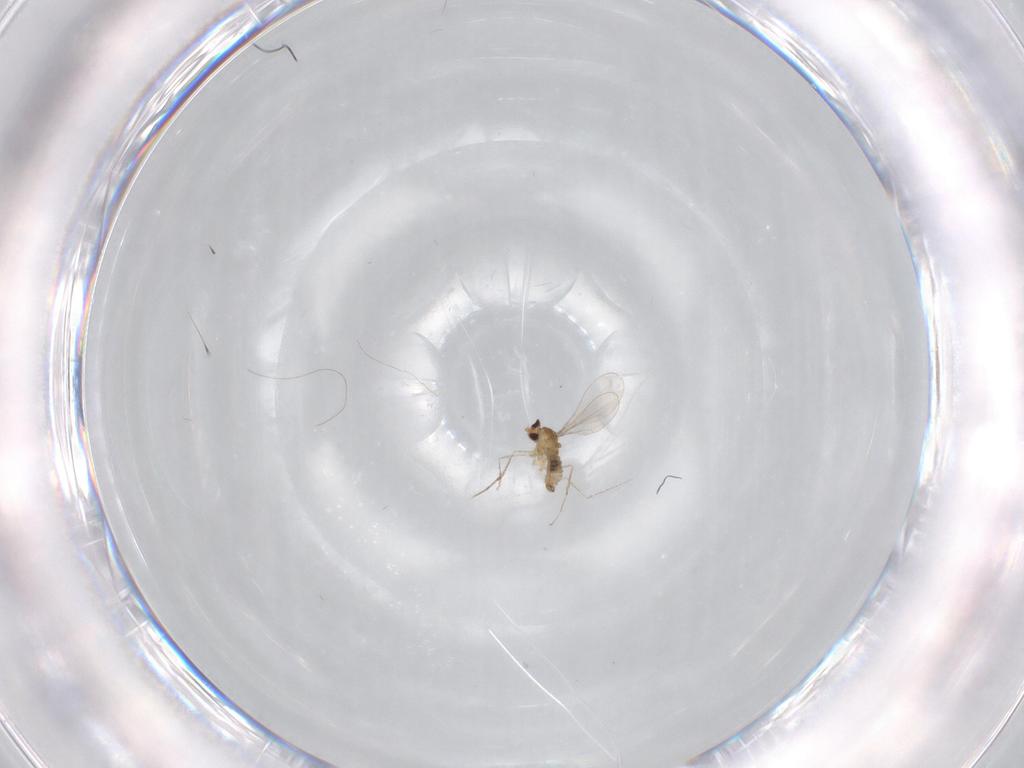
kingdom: Animalia
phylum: Arthropoda
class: Insecta
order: Diptera
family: Cecidomyiidae
